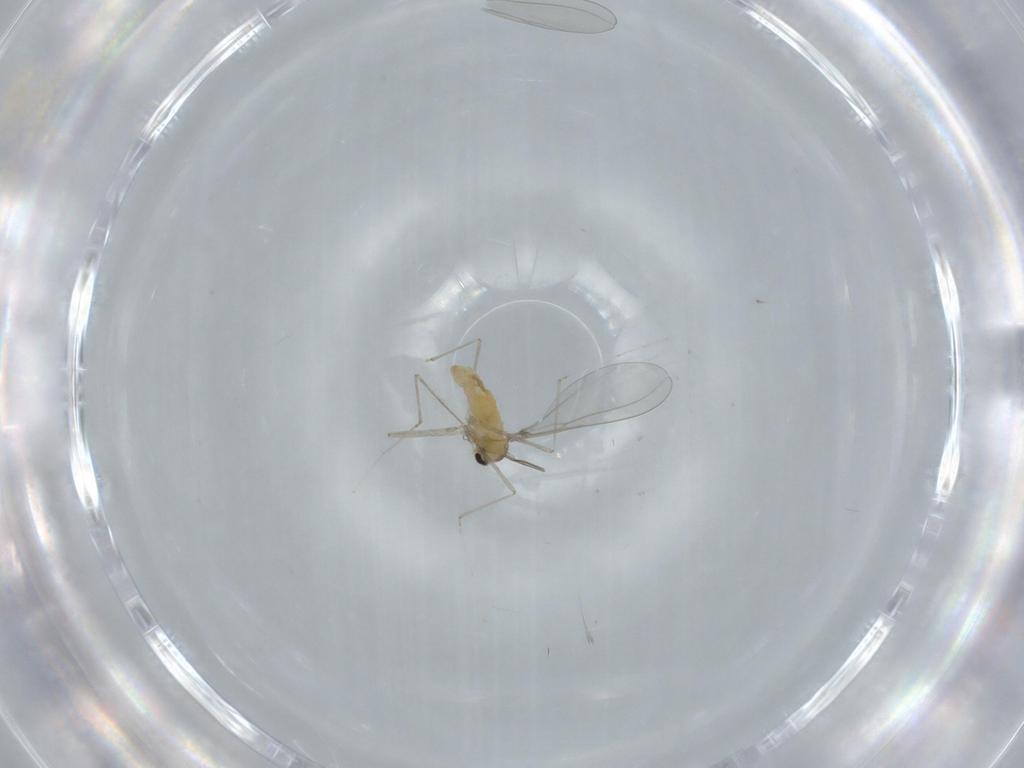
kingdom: Animalia
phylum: Arthropoda
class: Insecta
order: Diptera
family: Cecidomyiidae
